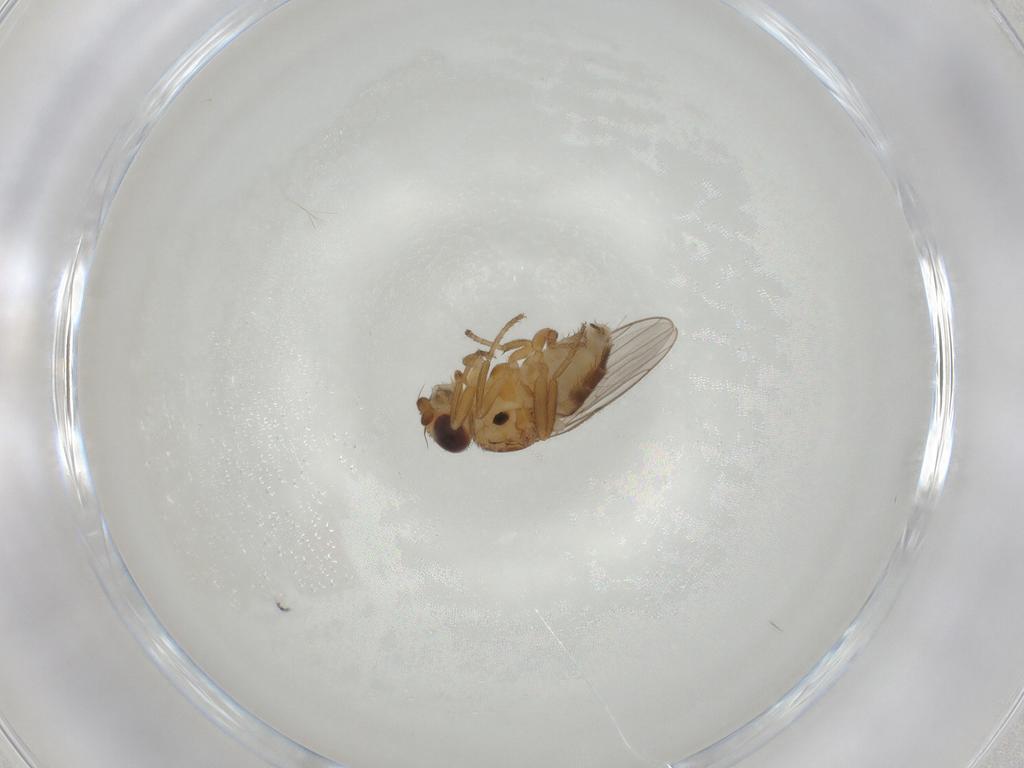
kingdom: Animalia
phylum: Arthropoda
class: Insecta
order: Diptera
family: Chloropidae
